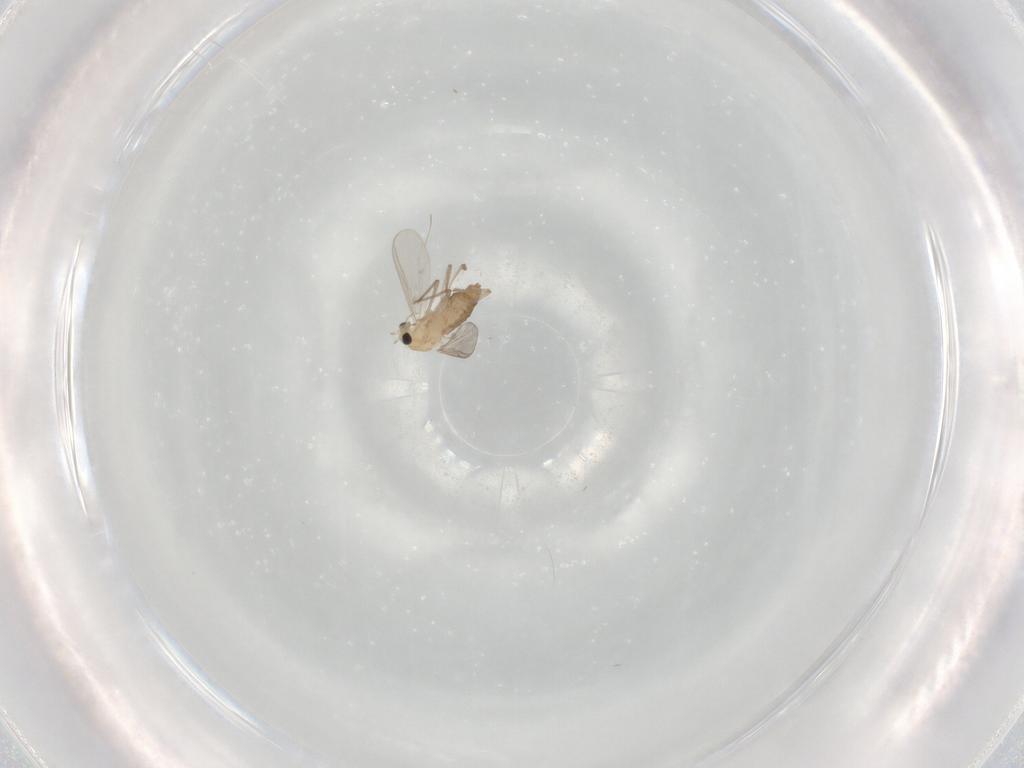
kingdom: Animalia
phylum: Arthropoda
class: Insecta
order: Diptera
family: Chironomidae
